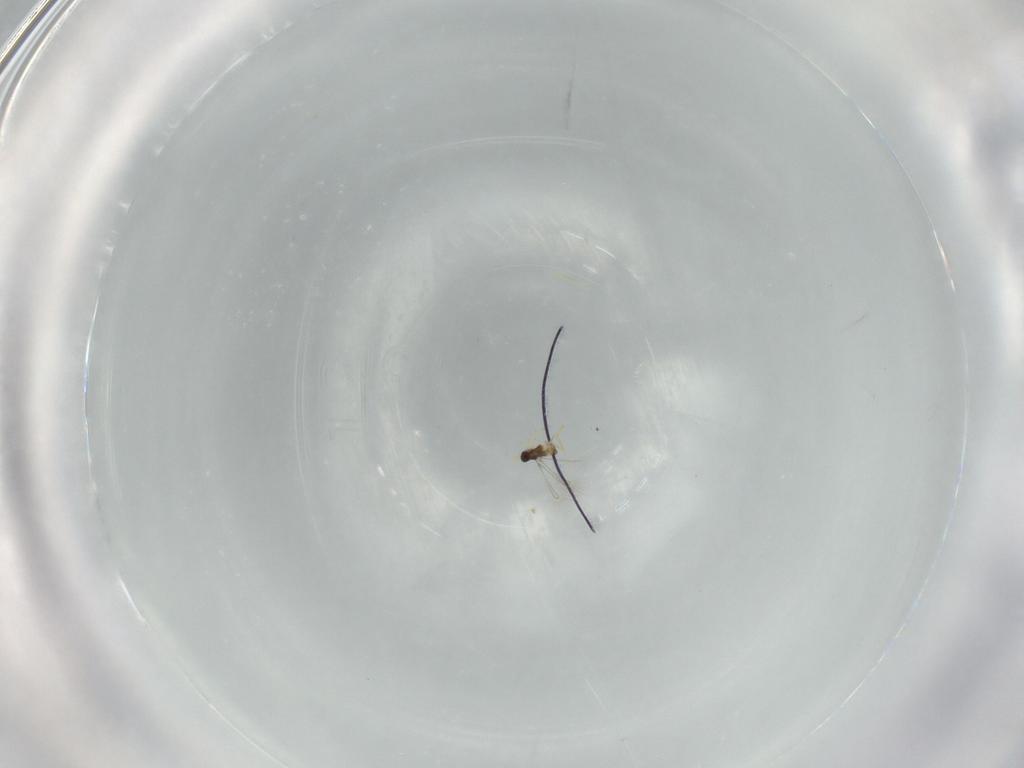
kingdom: Animalia
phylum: Arthropoda
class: Insecta
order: Hymenoptera
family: Mymaridae
